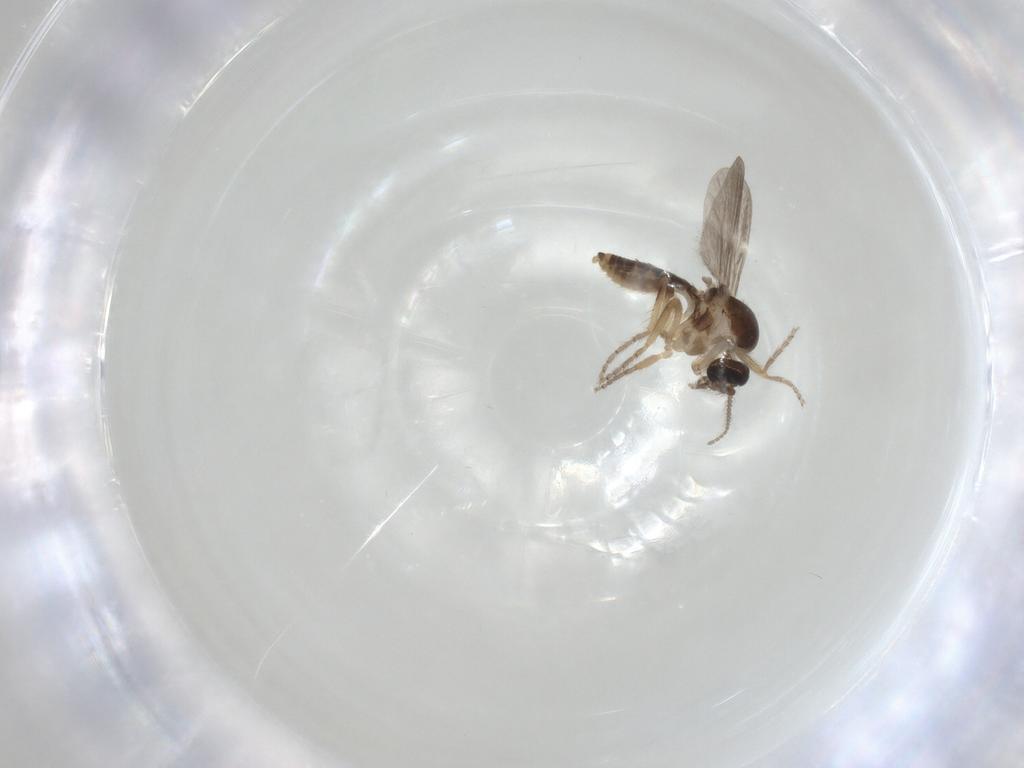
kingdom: Animalia
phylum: Arthropoda
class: Insecta
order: Diptera
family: Ceratopogonidae
